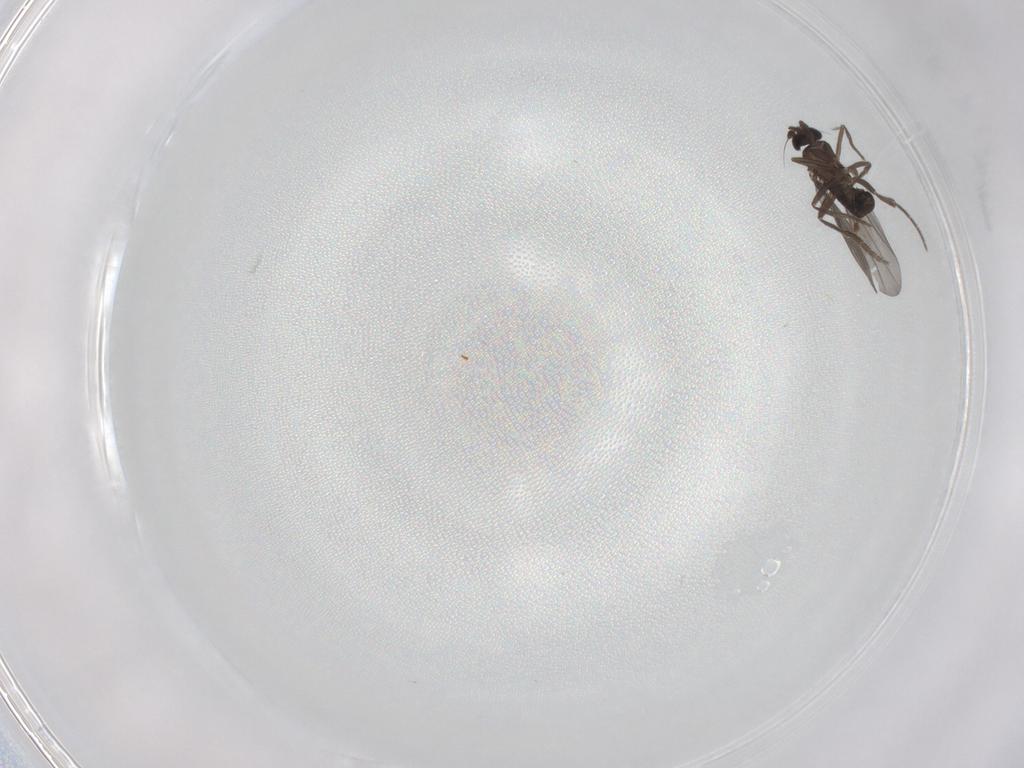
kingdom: Animalia
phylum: Arthropoda
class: Insecta
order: Diptera
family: Phoridae
